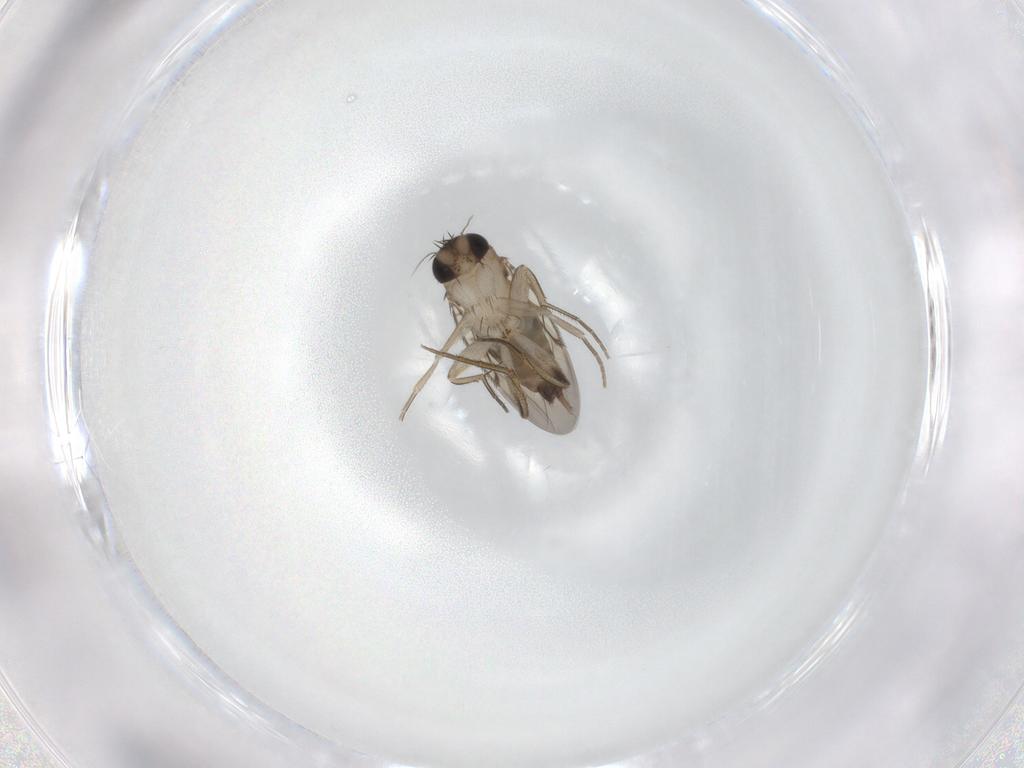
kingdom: Animalia
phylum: Arthropoda
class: Insecta
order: Diptera
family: Phoridae
